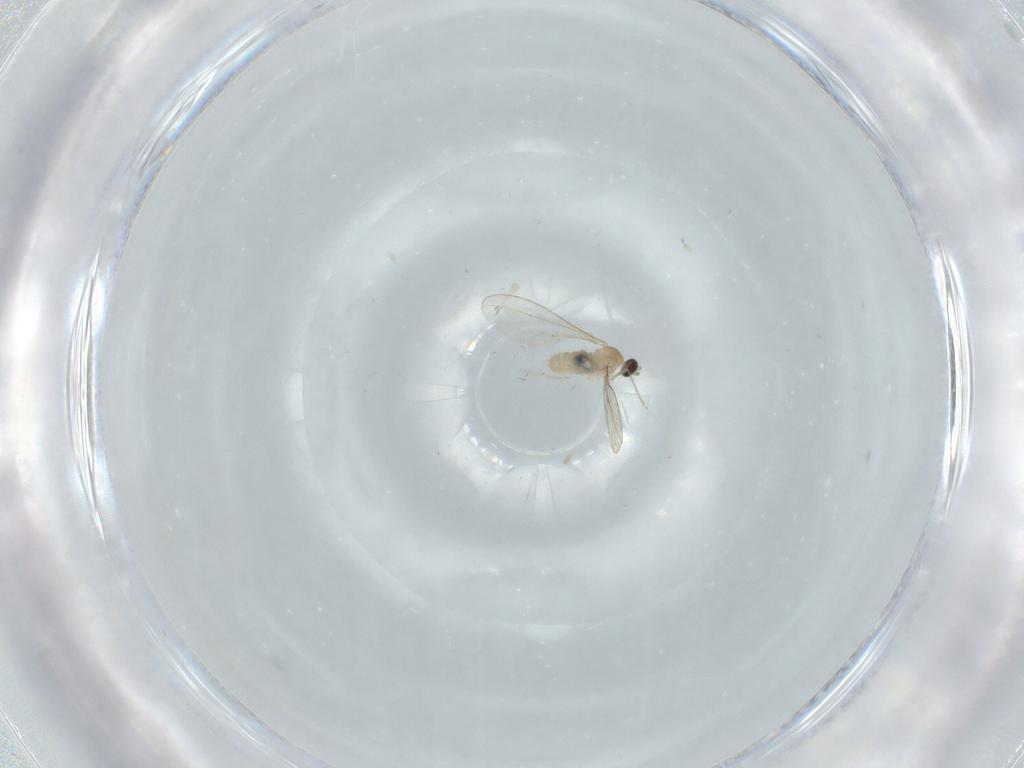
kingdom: Animalia
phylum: Arthropoda
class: Insecta
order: Diptera
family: Cecidomyiidae
